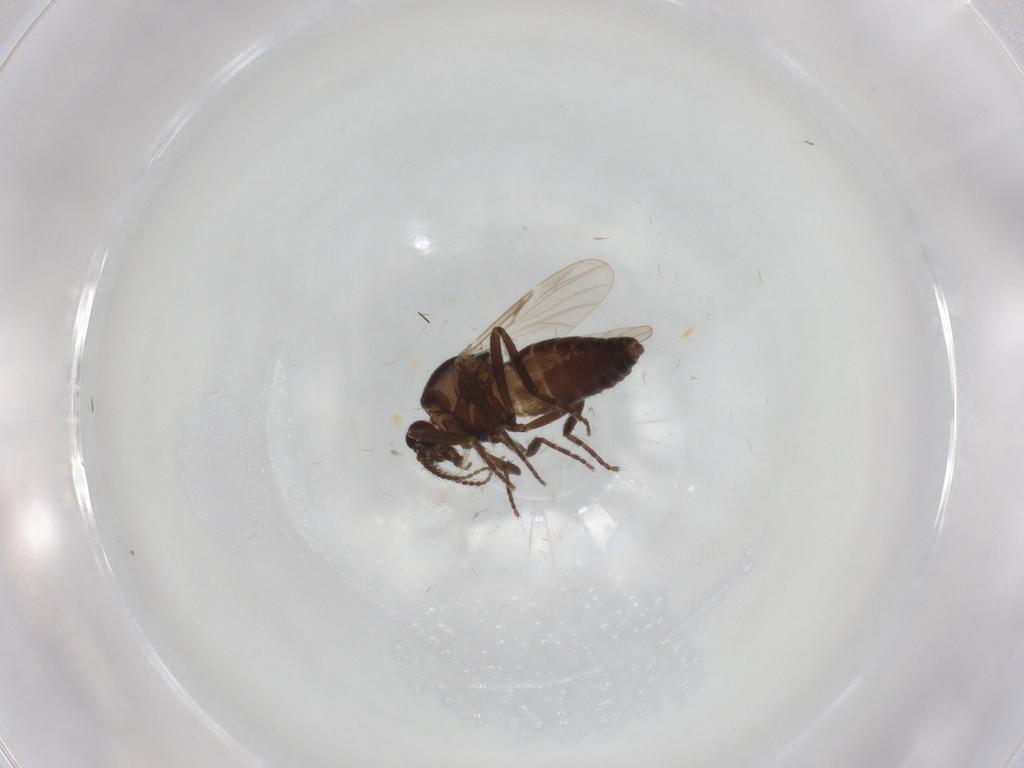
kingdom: Animalia
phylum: Arthropoda
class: Insecta
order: Diptera
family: Ceratopogonidae
